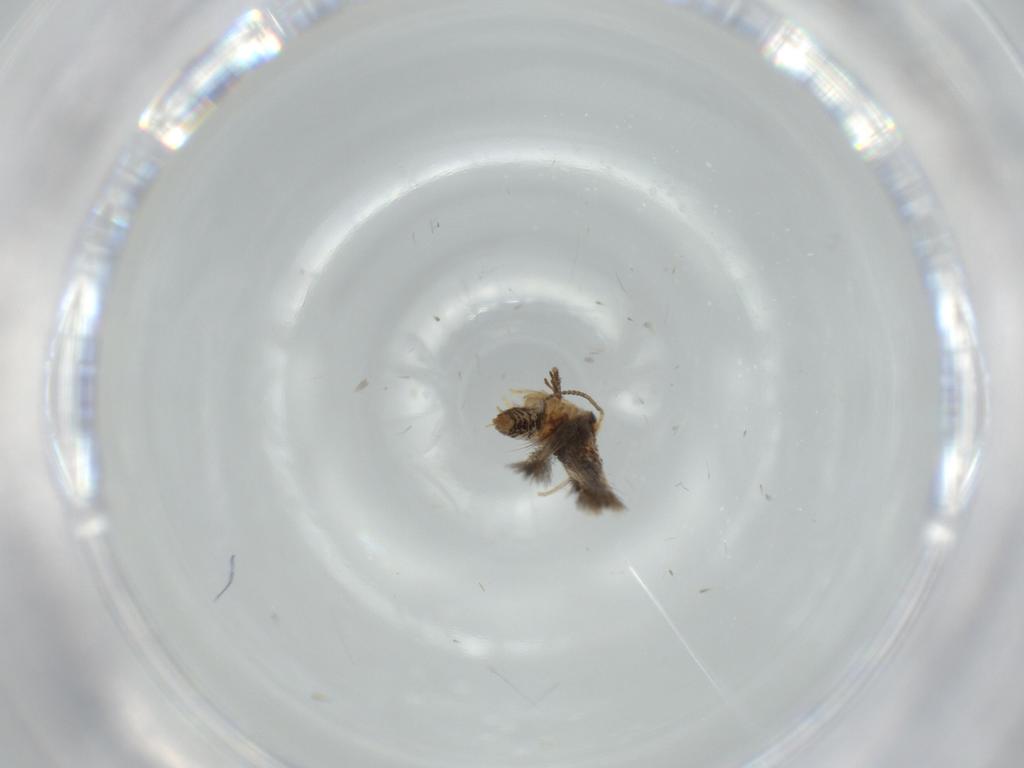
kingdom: Animalia
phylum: Arthropoda
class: Insecta
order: Lepidoptera
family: Nepticulidae
